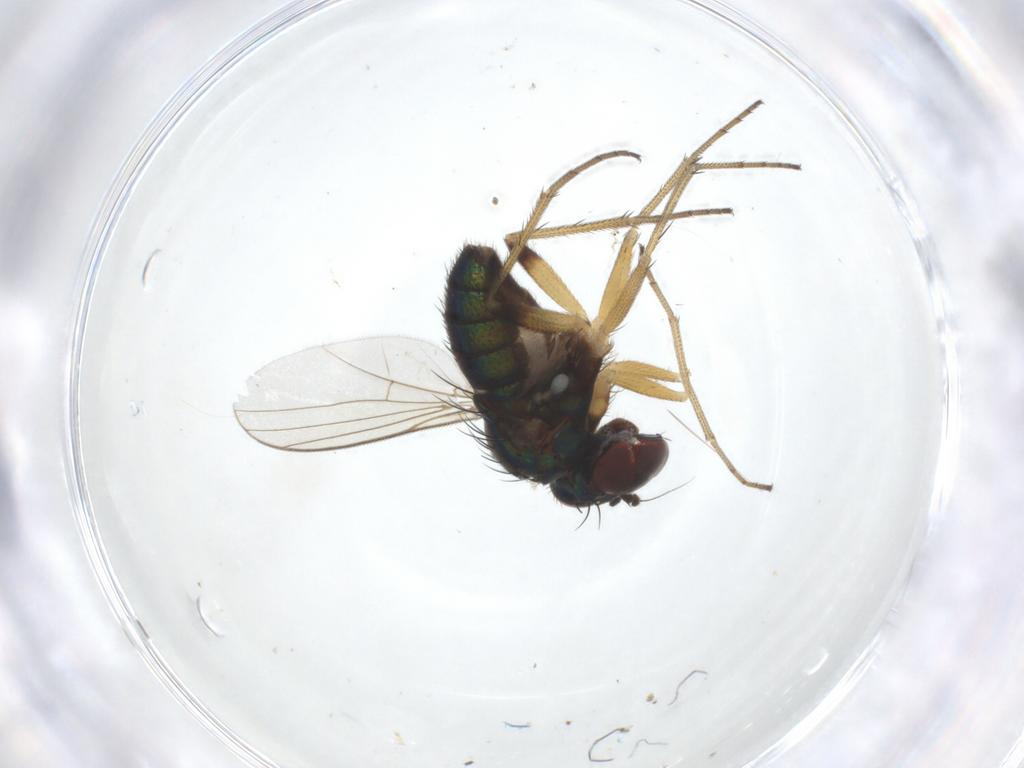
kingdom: Animalia
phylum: Arthropoda
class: Insecta
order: Diptera
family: Dolichopodidae
